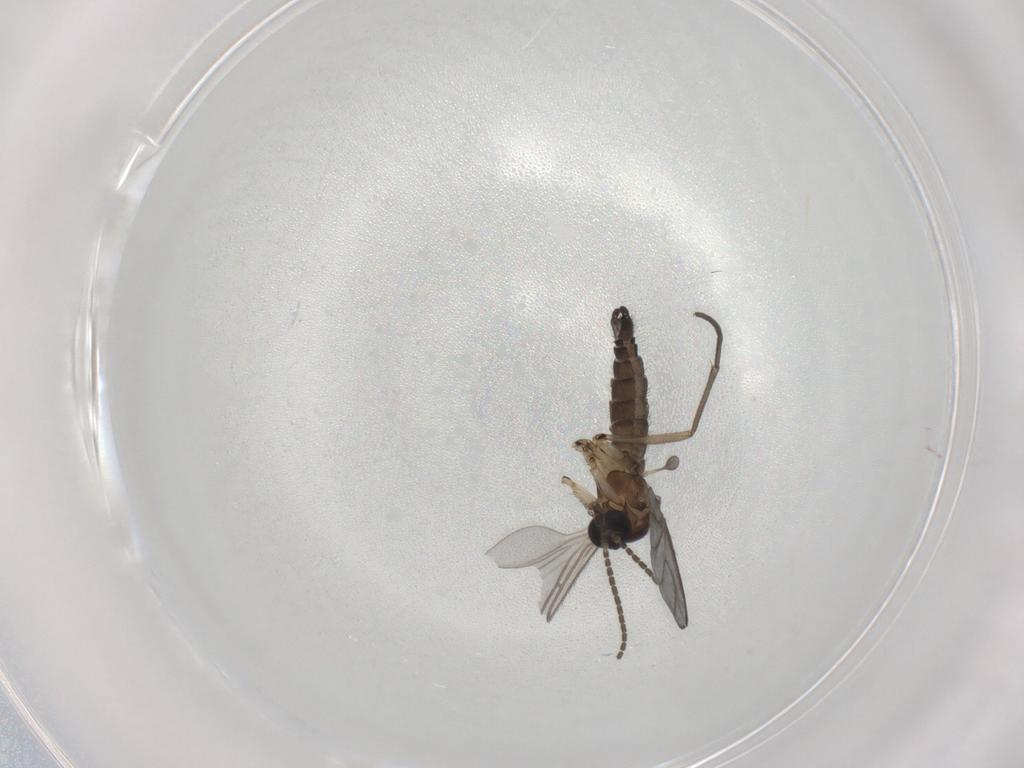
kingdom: Animalia
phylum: Arthropoda
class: Insecta
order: Diptera
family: Sciaridae
